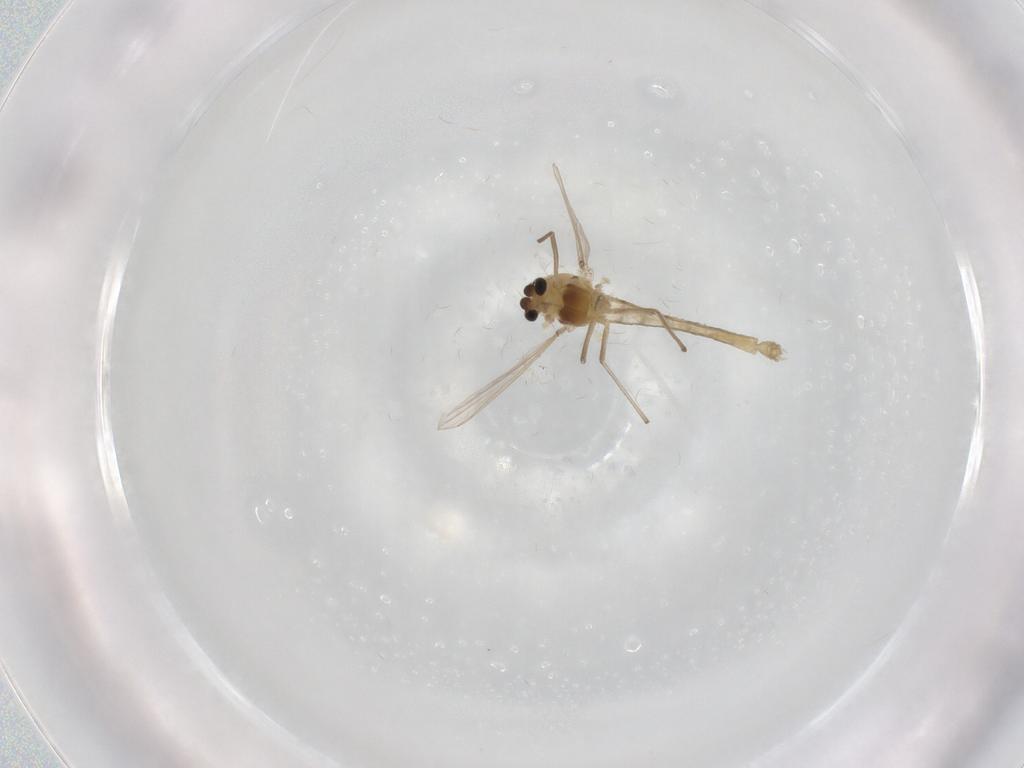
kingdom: Animalia
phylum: Arthropoda
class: Insecta
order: Diptera
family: Chironomidae
